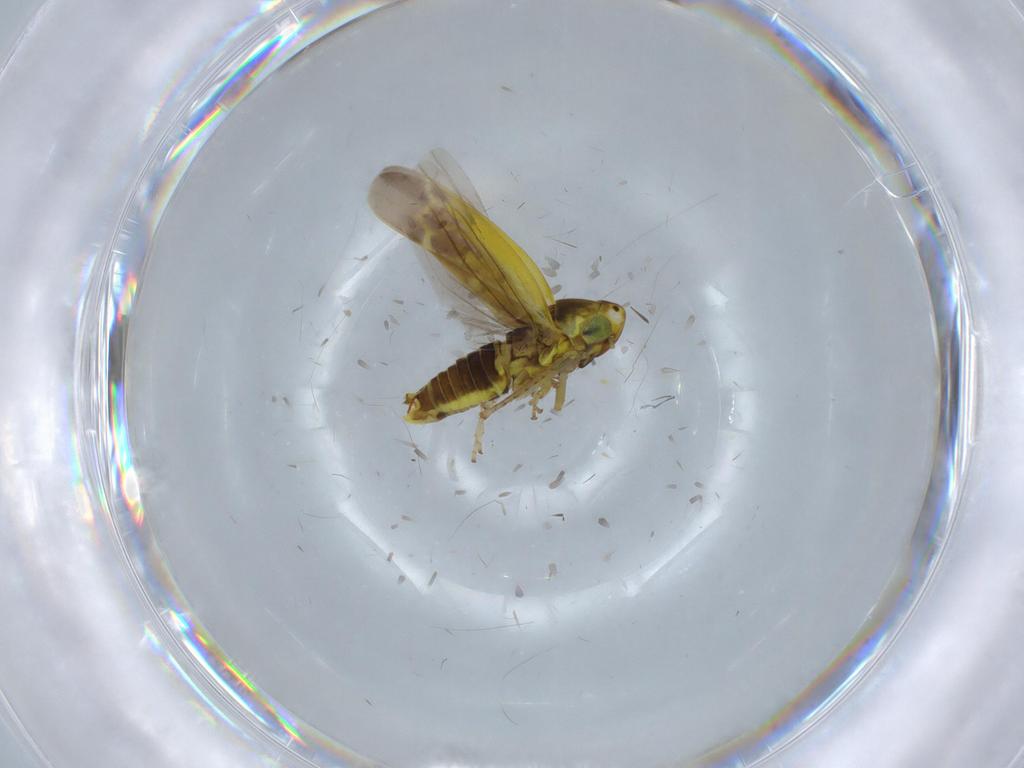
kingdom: Animalia
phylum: Arthropoda
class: Insecta
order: Hemiptera
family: Cicadellidae
